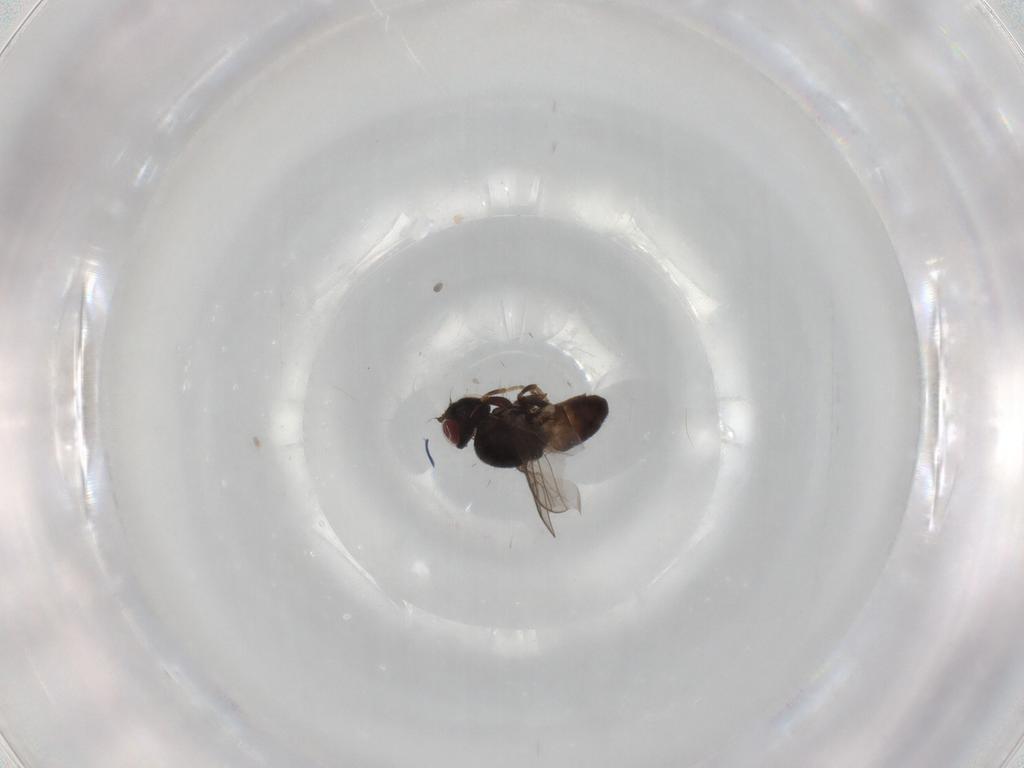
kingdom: Animalia
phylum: Arthropoda
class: Insecta
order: Diptera
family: Chloropidae
